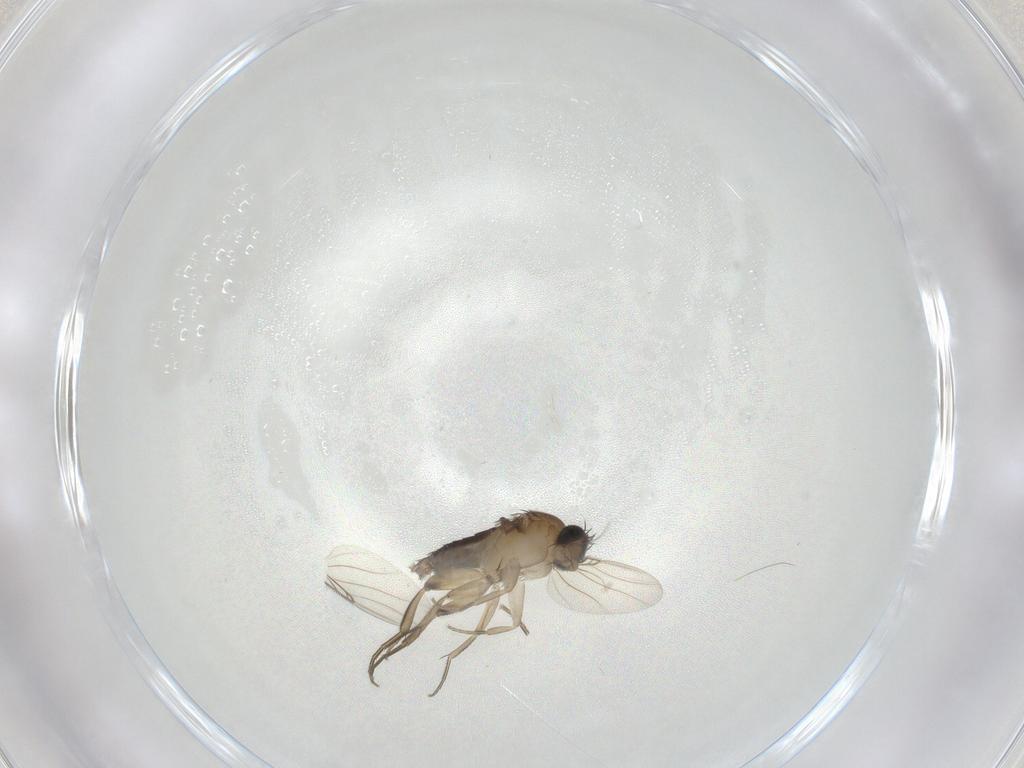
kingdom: Animalia
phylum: Arthropoda
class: Insecta
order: Diptera
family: Phoridae
